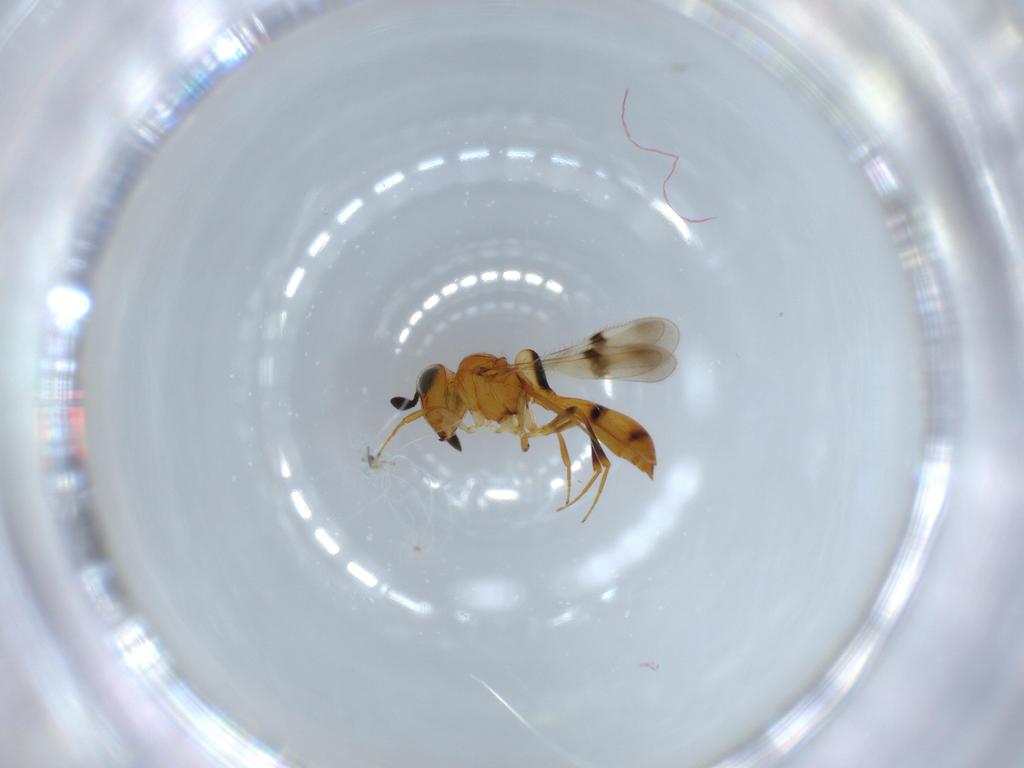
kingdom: Animalia
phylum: Arthropoda
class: Insecta
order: Hymenoptera
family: Scelionidae
